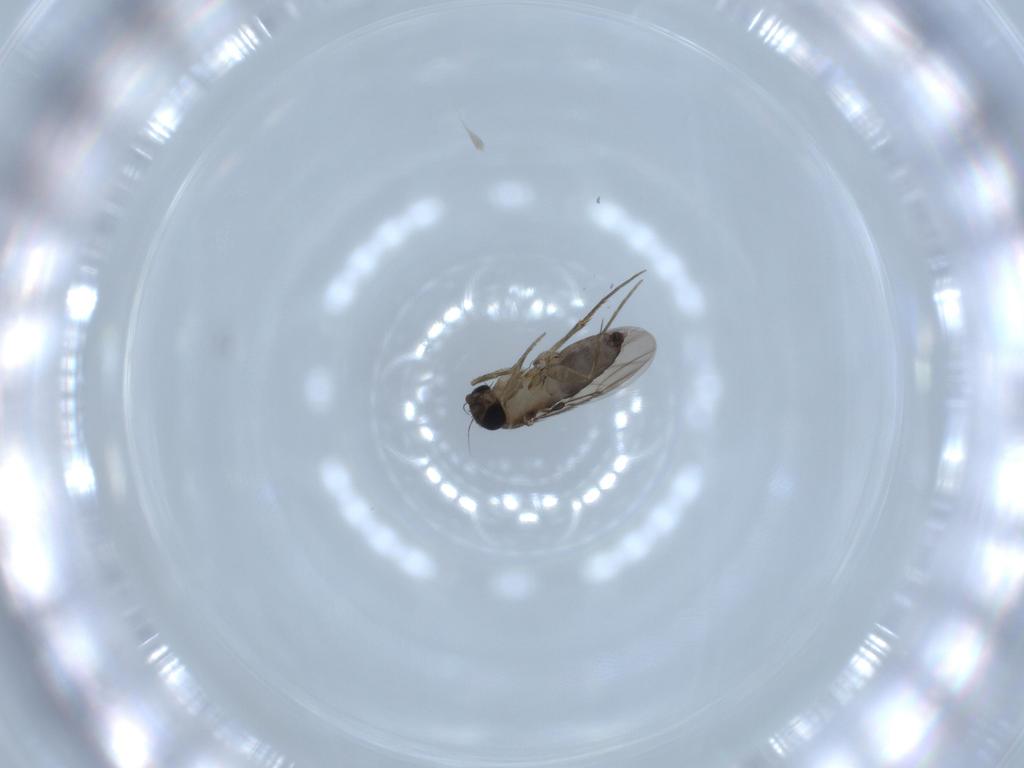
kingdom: Animalia
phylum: Arthropoda
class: Insecta
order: Diptera
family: Phoridae
